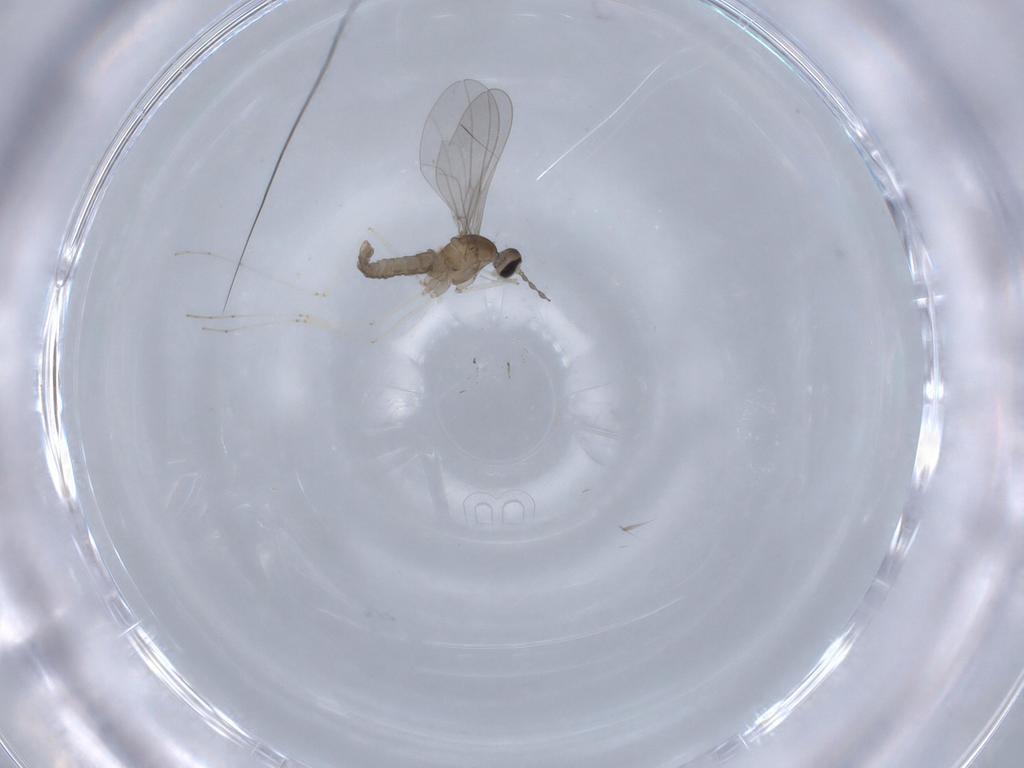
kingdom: Animalia
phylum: Arthropoda
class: Insecta
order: Diptera
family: Cecidomyiidae
